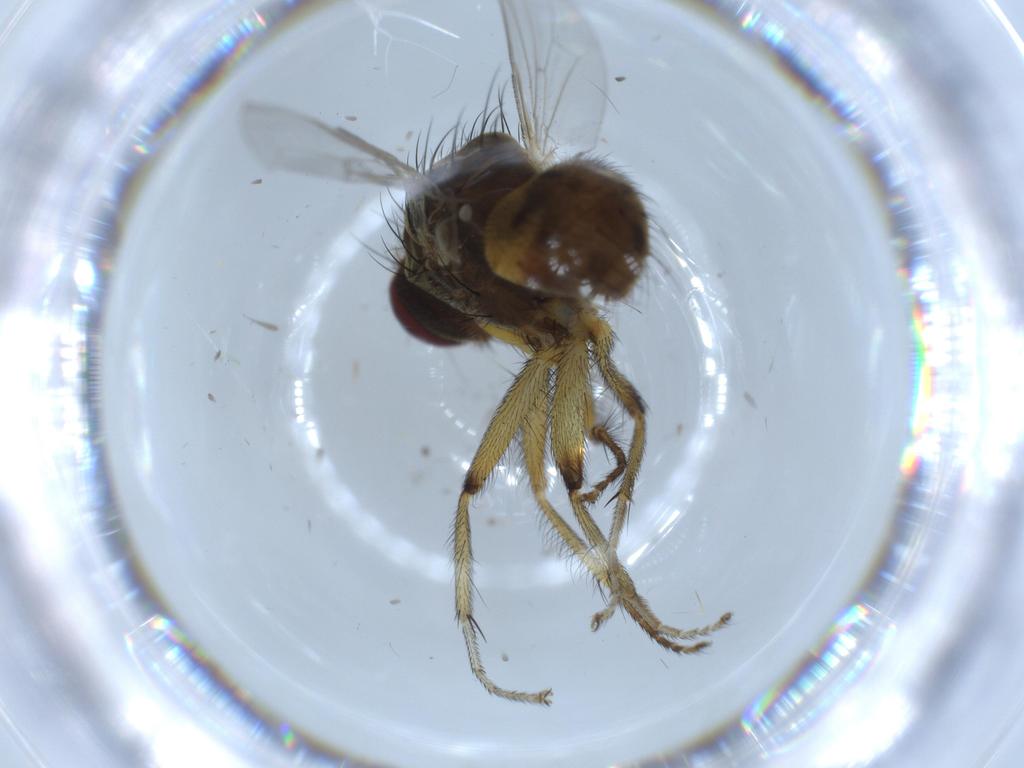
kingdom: Animalia
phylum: Arthropoda
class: Insecta
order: Diptera
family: Muscidae
